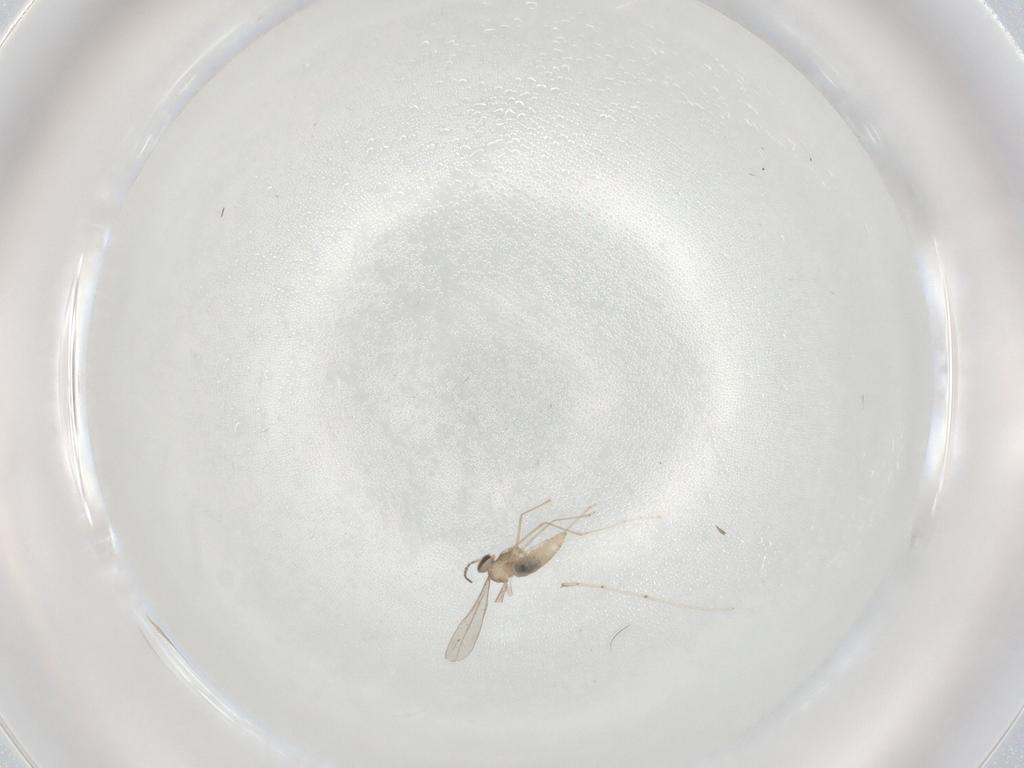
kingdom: Animalia
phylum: Arthropoda
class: Insecta
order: Diptera
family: Cecidomyiidae
